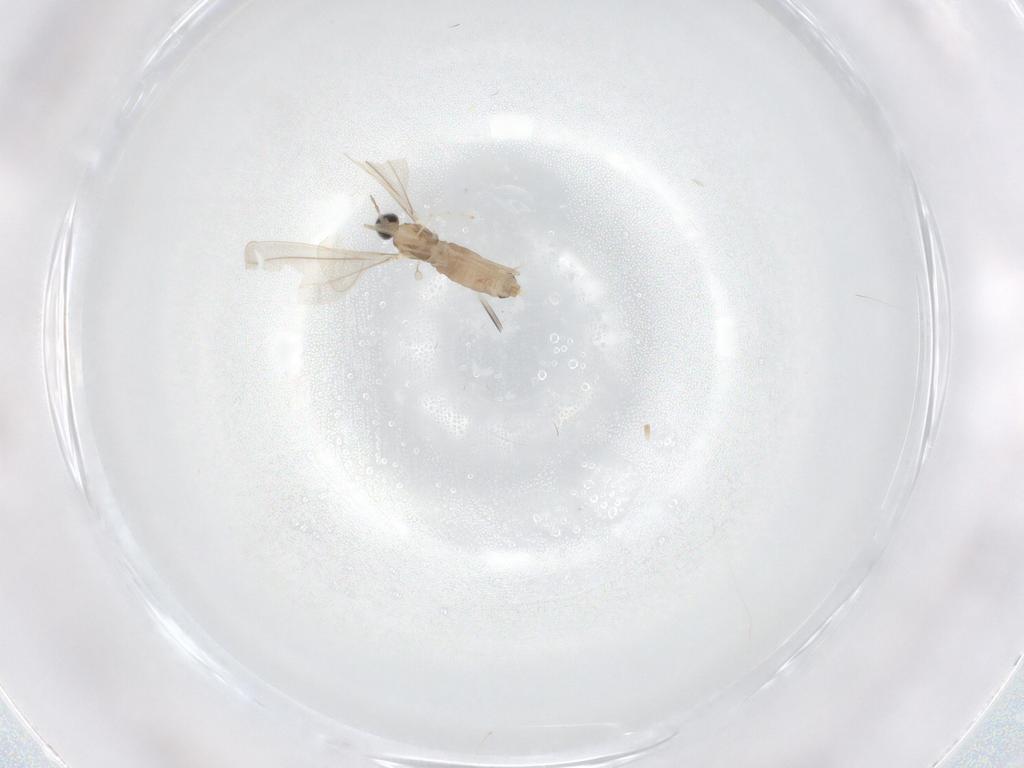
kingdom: Animalia
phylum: Arthropoda
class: Insecta
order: Diptera
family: Cecidomyiidae
